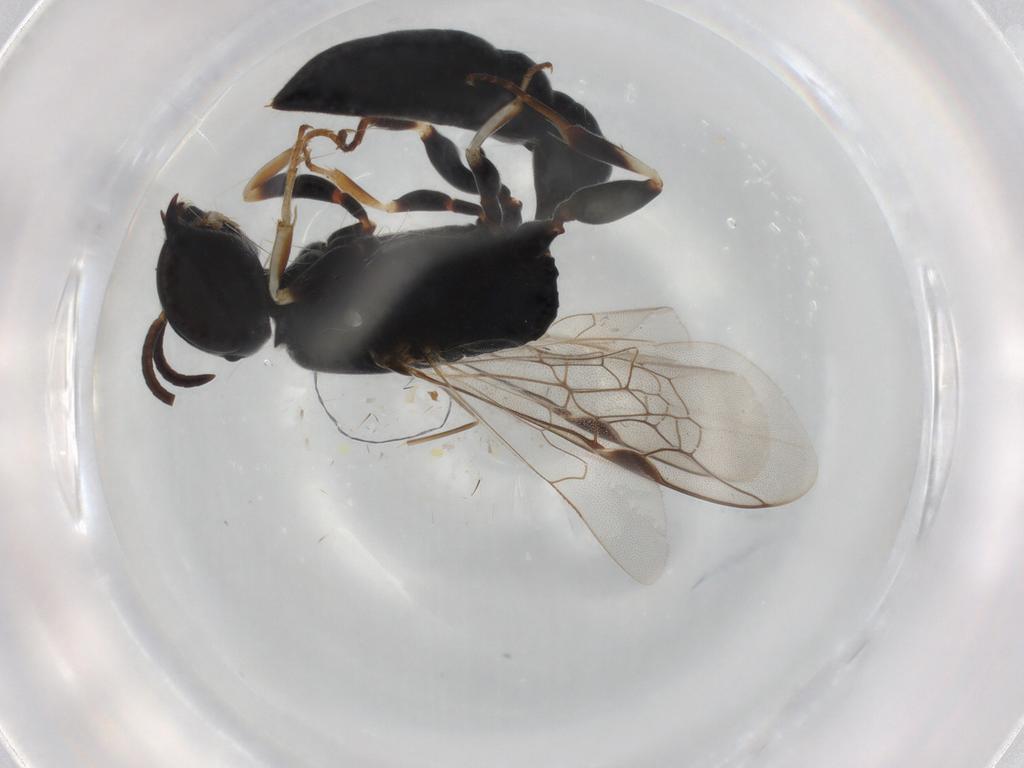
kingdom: Animalia
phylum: Arthropoda
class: Insecta
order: Hymenoptera
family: Crabronidae
